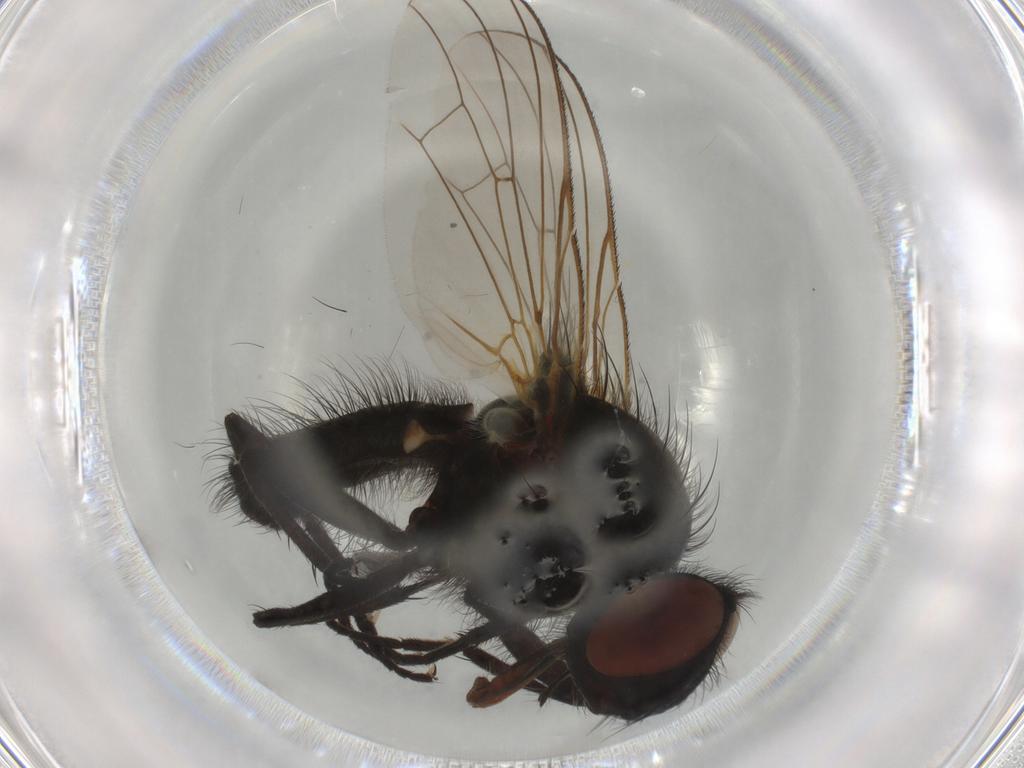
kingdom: Animalia
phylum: Arthropoda
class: Insecta
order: Diptera
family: Anthomyiidae
